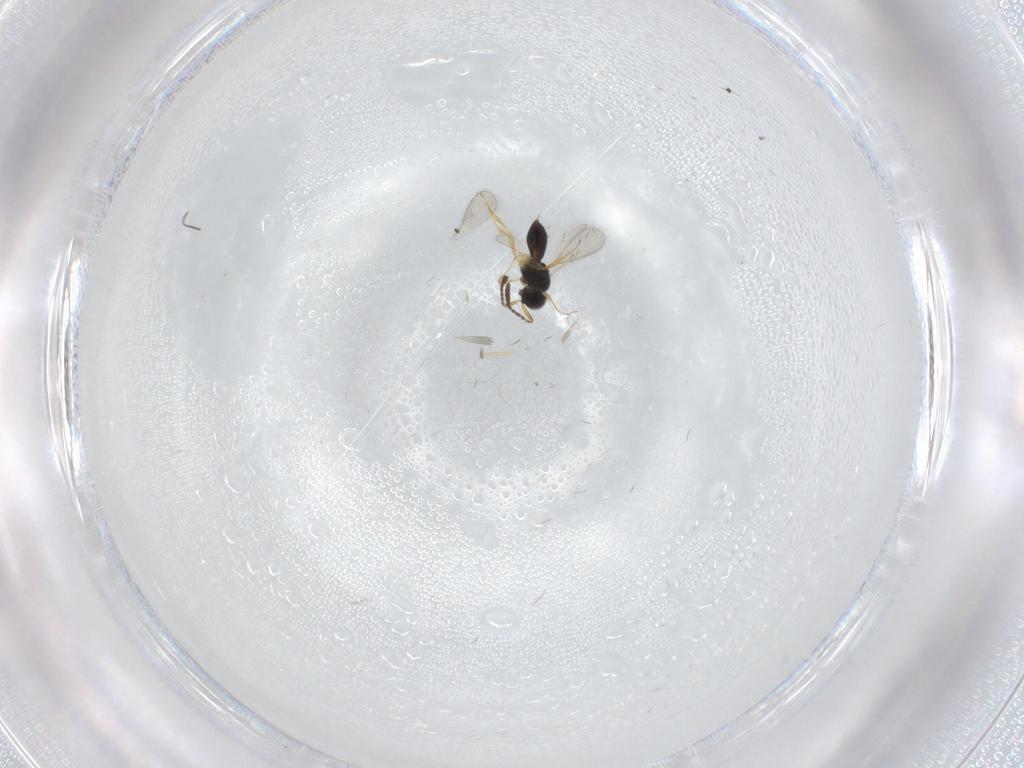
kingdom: Animalia
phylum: Arthropoda
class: Insecta
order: Hymenoptera
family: Scelionidae
